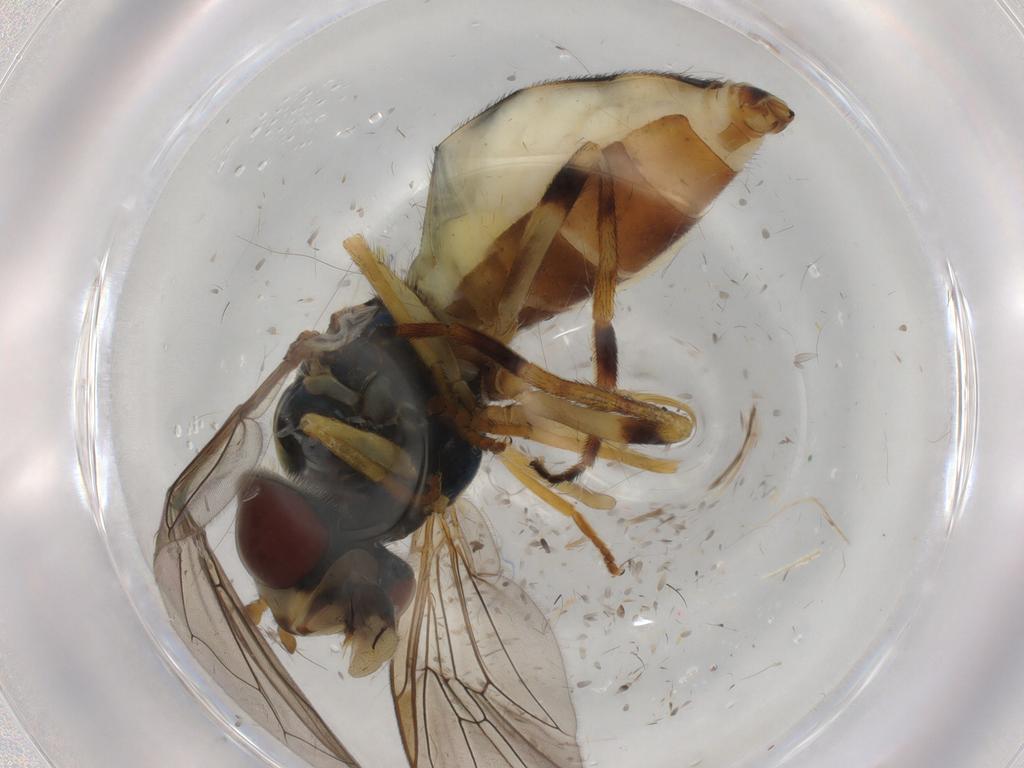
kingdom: Animalia
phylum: Arthropoda
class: Insecta
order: Diptera
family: Syrphidae
